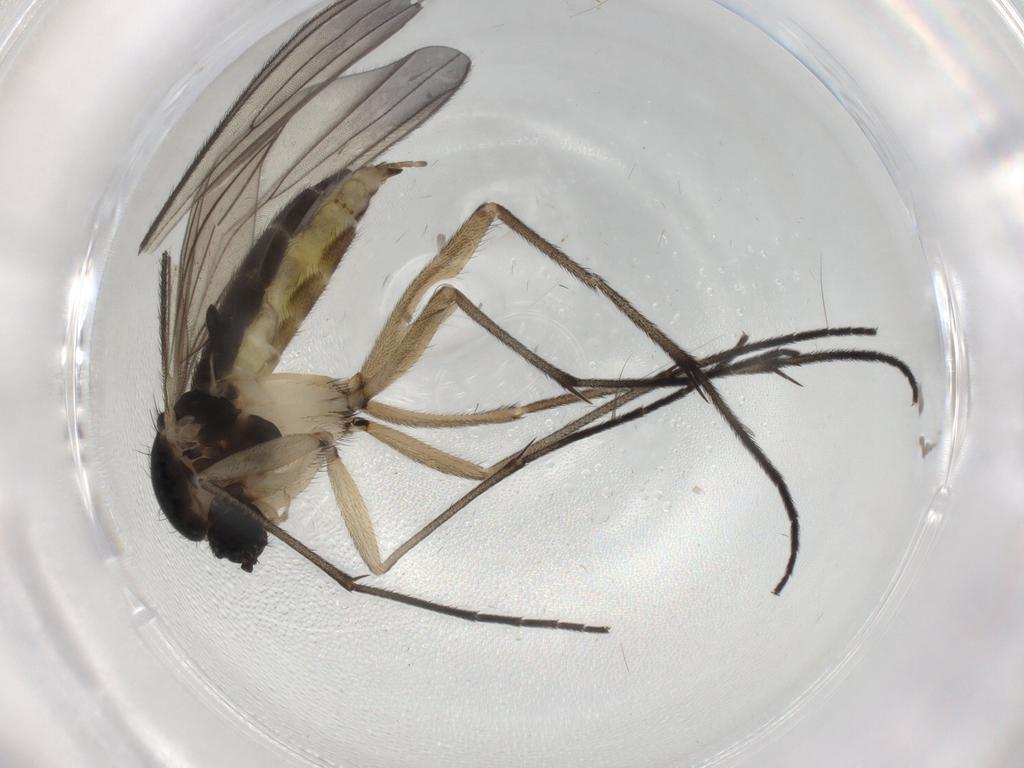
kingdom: Animalia
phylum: Arthropoda
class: Insecta
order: Diptera
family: Sciaridae
